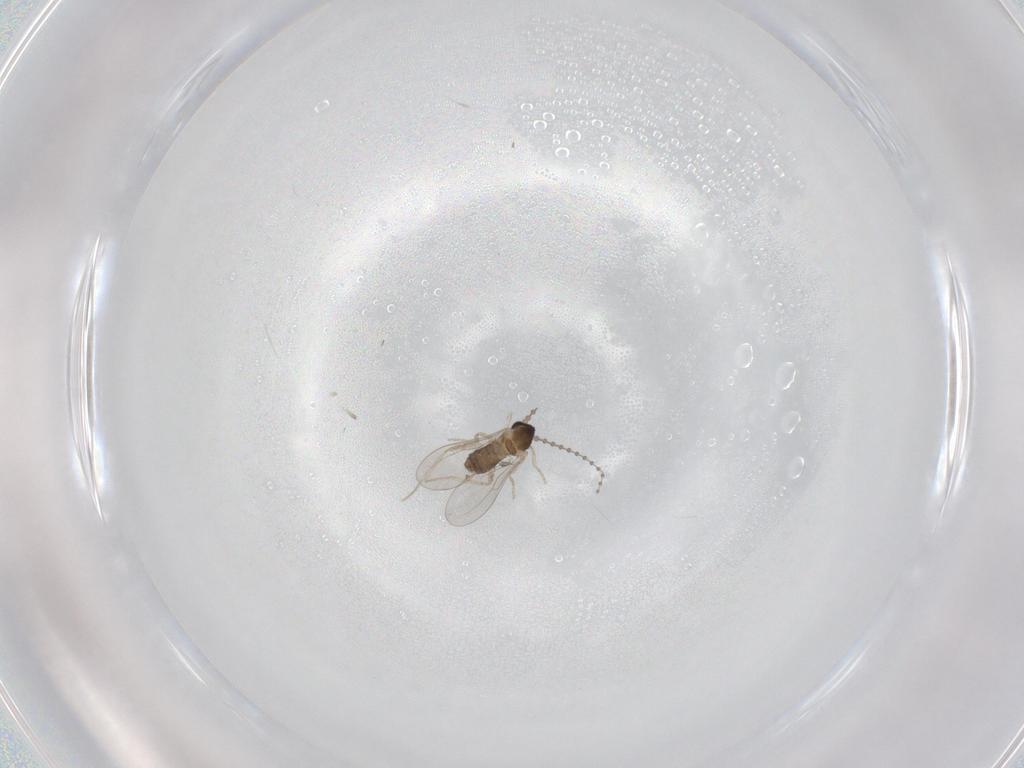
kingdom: Animalia
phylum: Arthropoda
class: Insecta
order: Diptera
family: Cecidomyiidae
